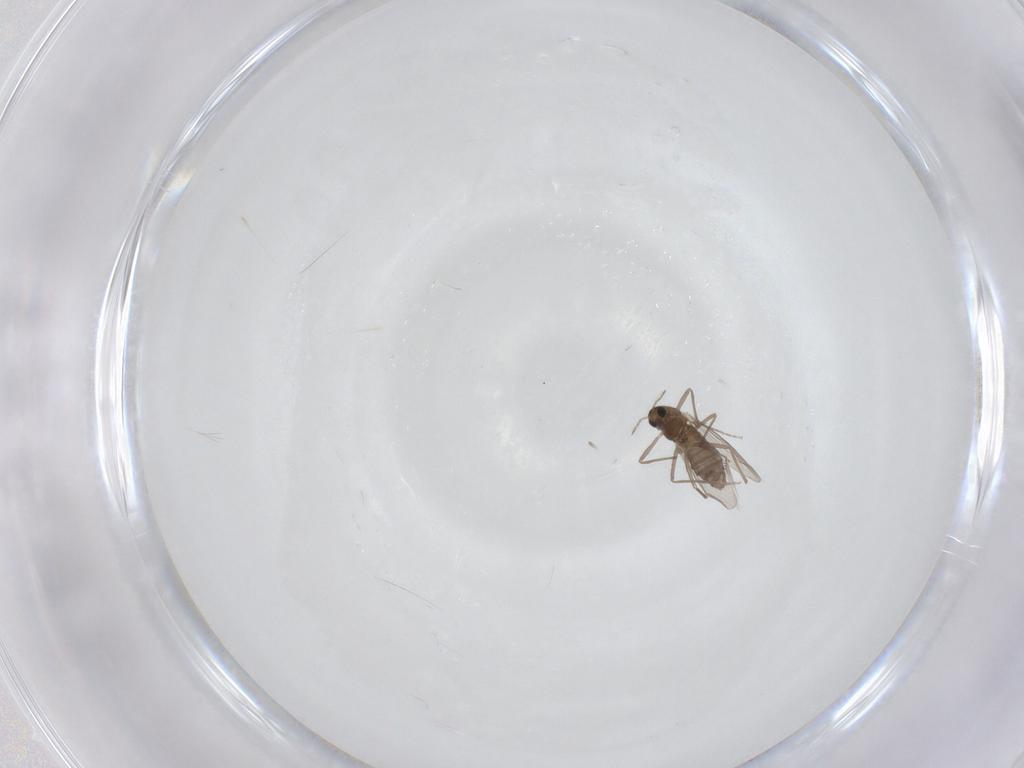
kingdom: Animalia
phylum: Arthropoda
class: Insecta
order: Diptera
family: Chironomidae
